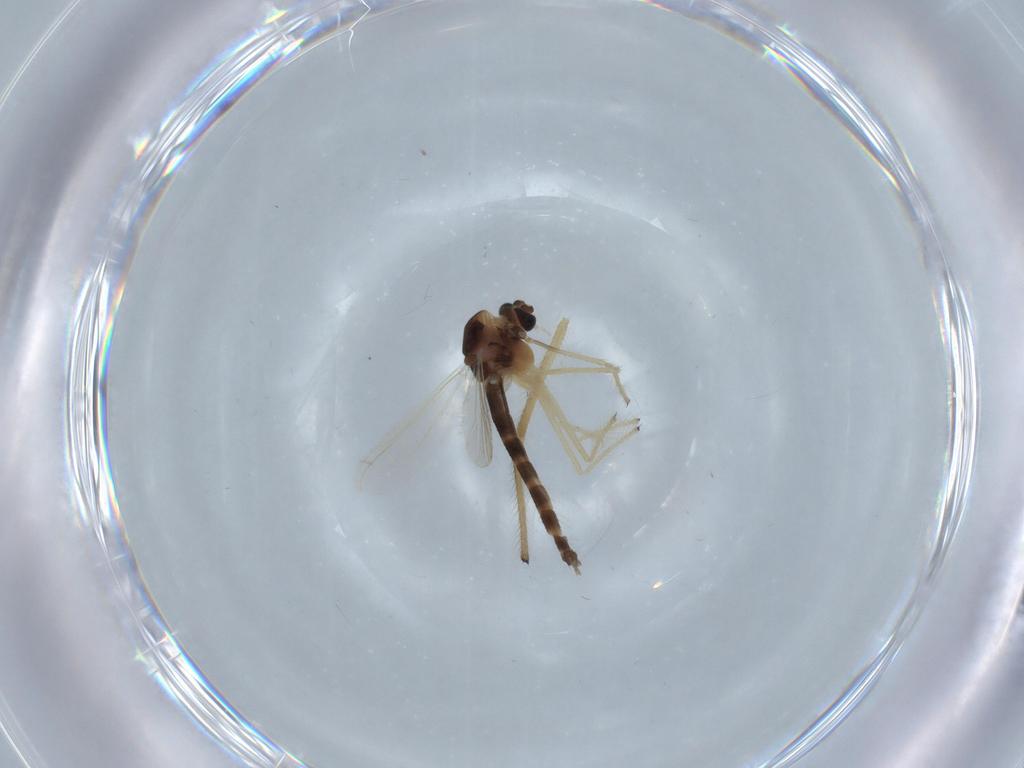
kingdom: Animalia
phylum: Arthropoda
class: Insecta
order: Diptera
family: Chironomidae
